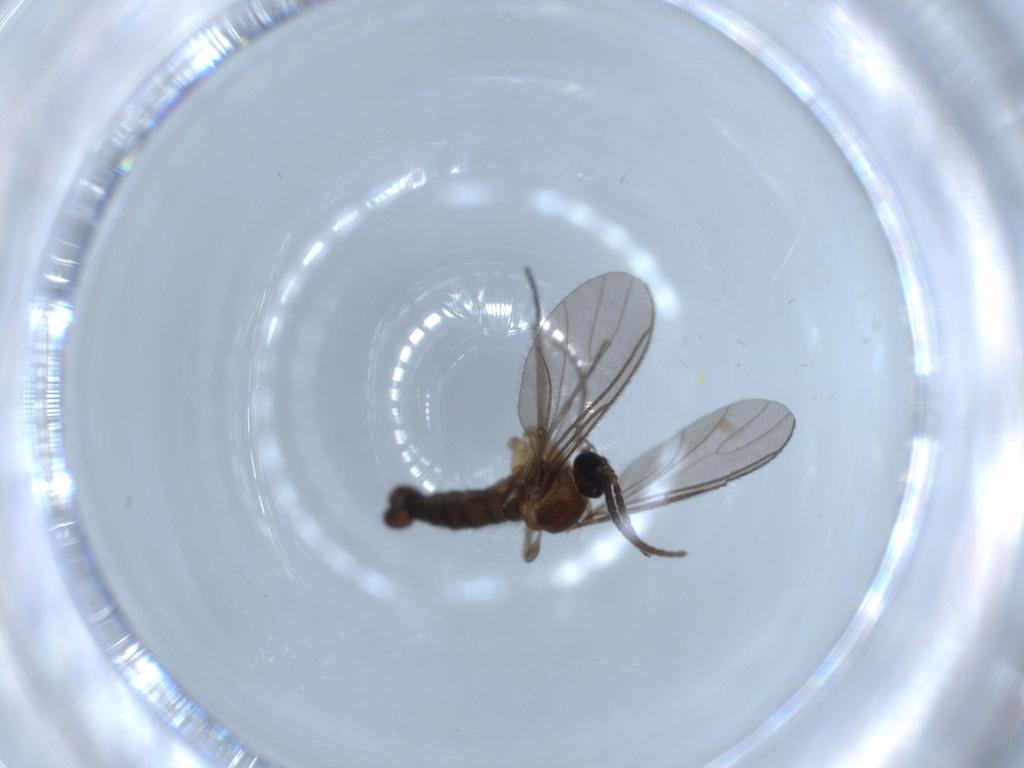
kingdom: Animalia
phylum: Arthropoda
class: Insecta
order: Diptera
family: Sciaridae
